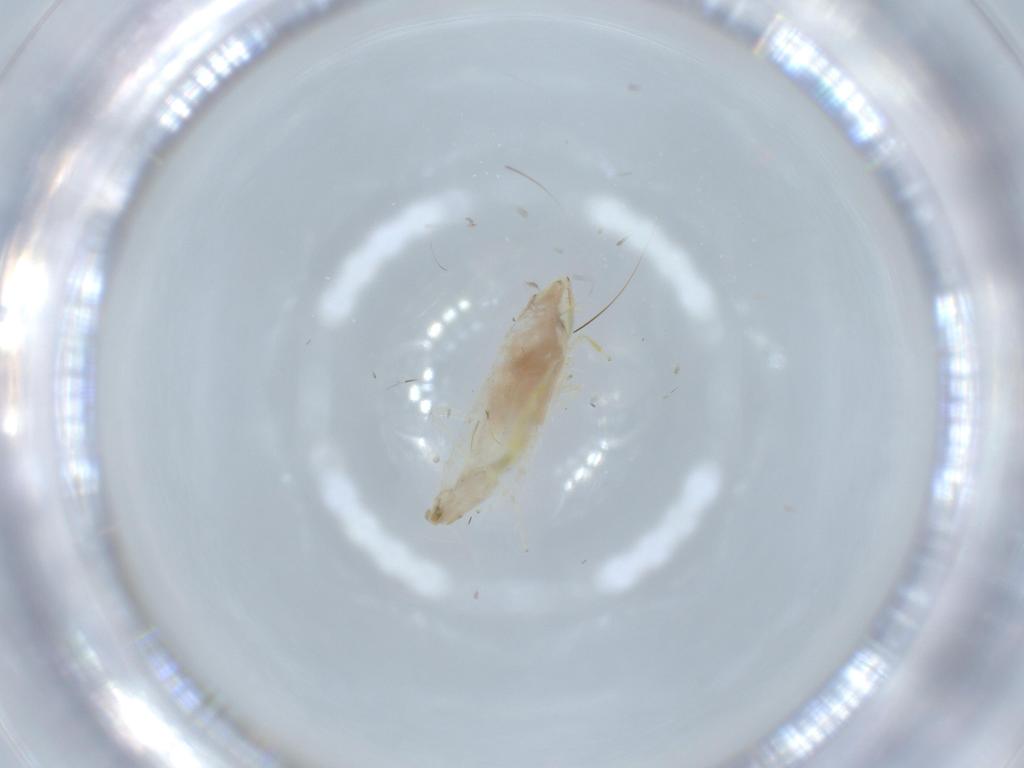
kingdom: Animalia
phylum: Arthropoda
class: Insecta
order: Hemiptera
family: Cicadellidae
